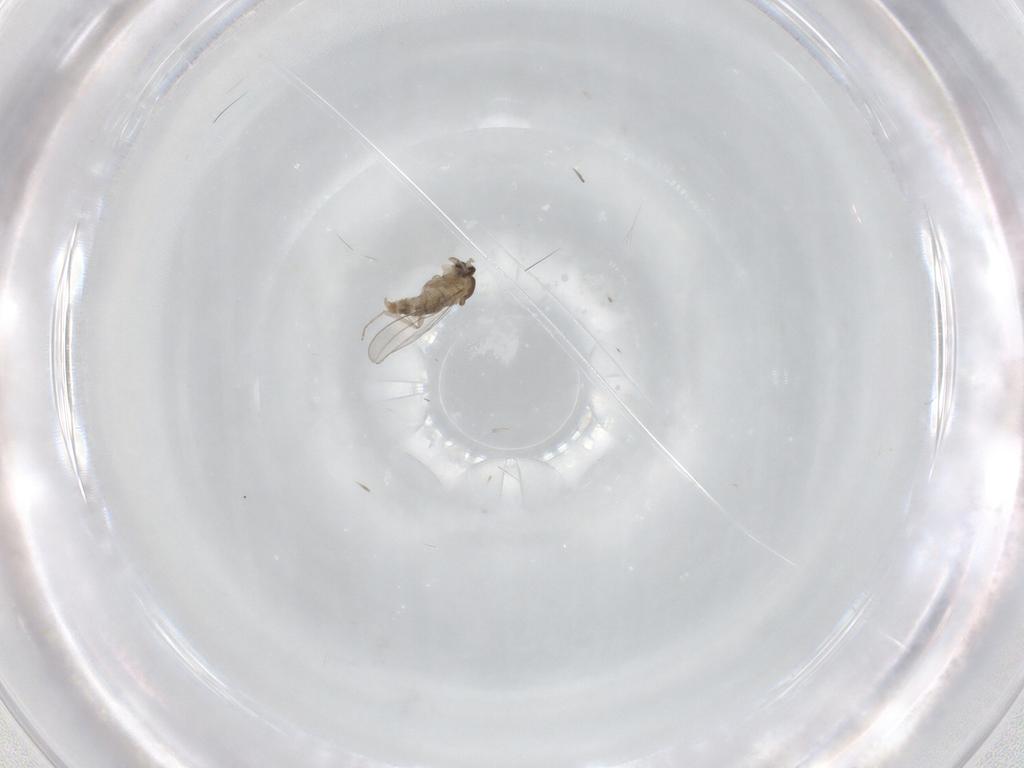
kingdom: Animalia
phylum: Arthropoda
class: Insecta
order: Diptera
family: Cecidomyiidae
